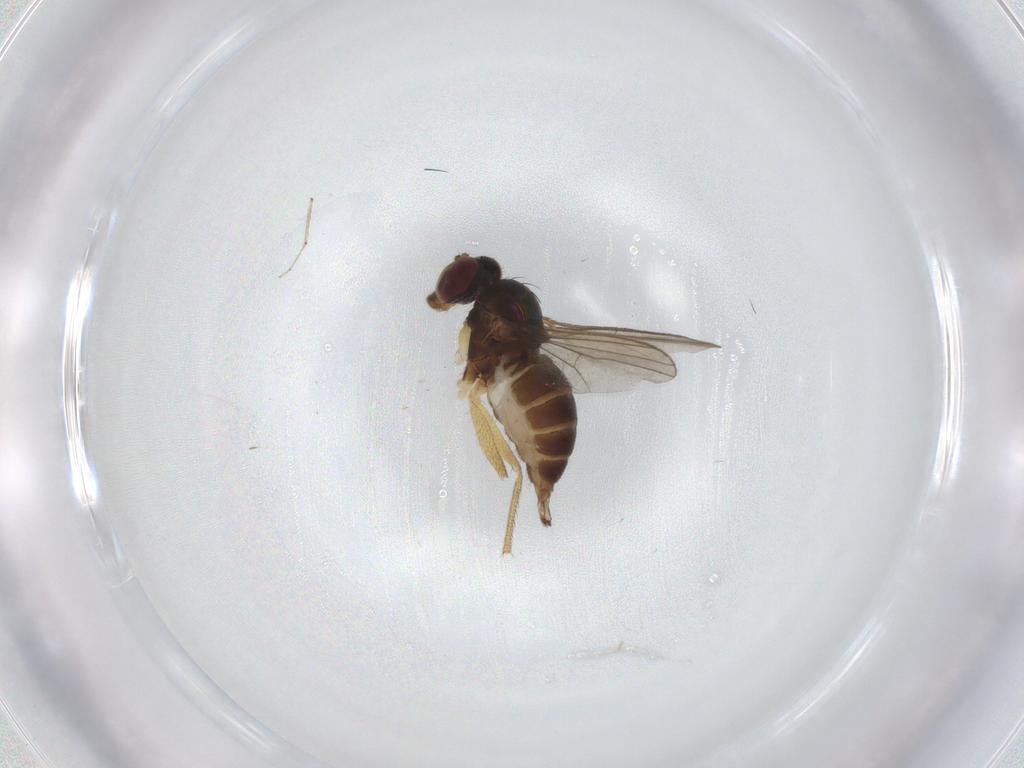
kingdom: Animalia
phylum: Arthropoda
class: Insecta
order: Diptera
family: Dolichopodidae
